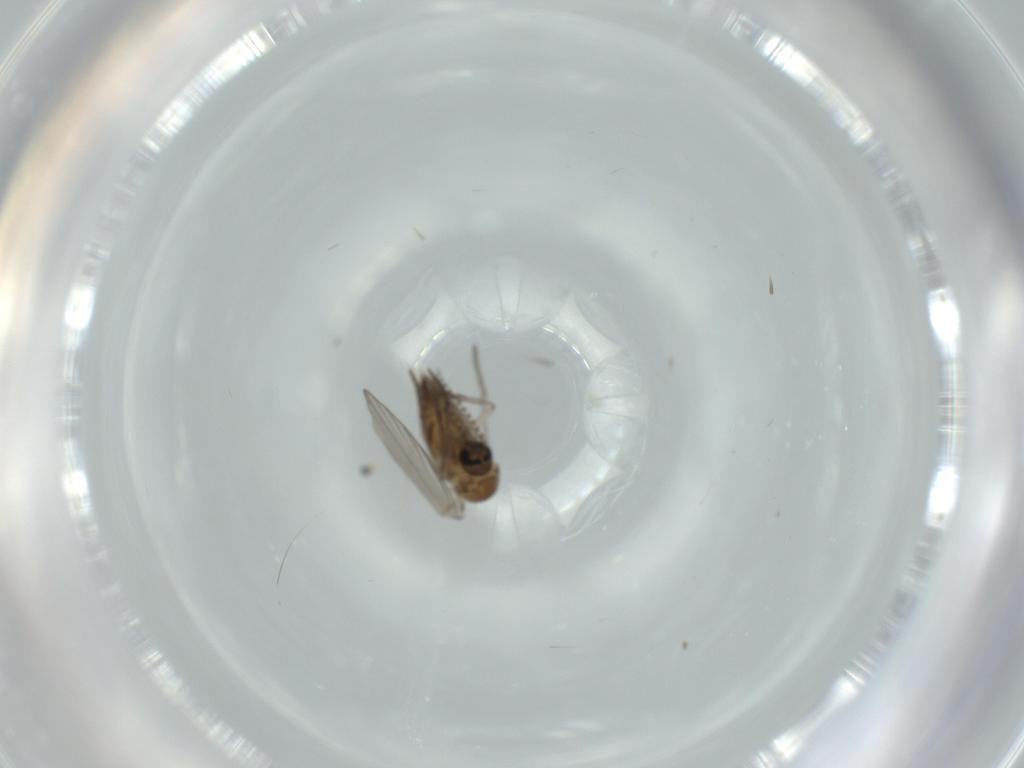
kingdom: Animalia
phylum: Arthropoda
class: Insecta
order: Diptera
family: Psychodidae
